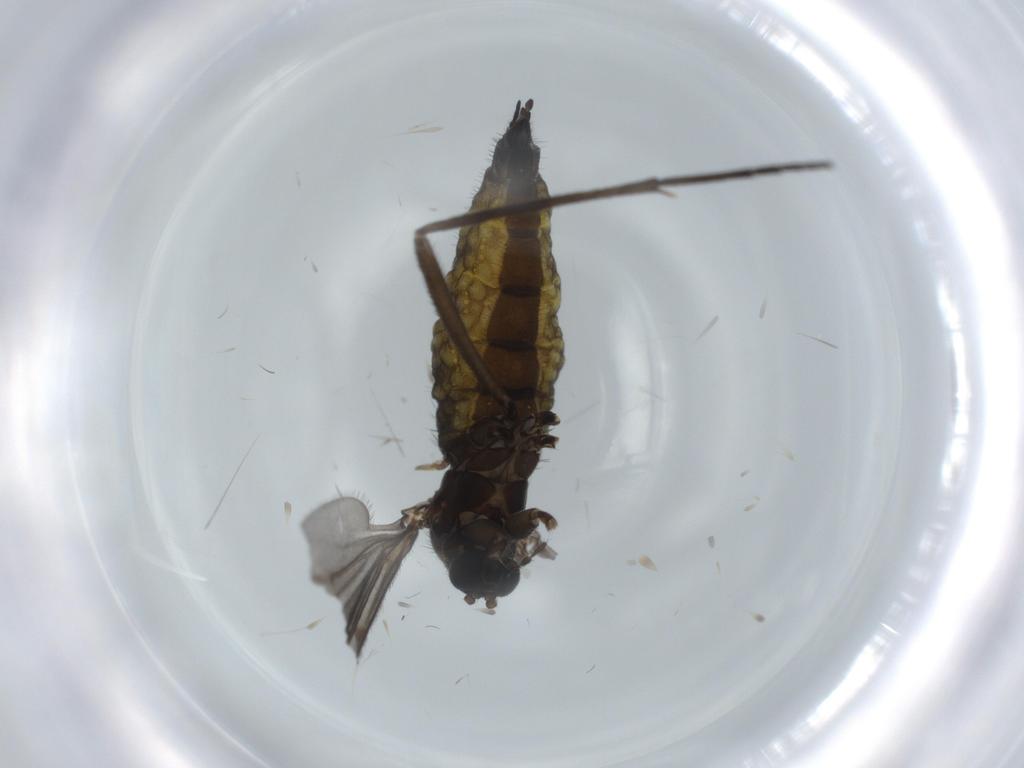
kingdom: Animalia
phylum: Arthropoda
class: Insecta
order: Diptera
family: Sciaridae
